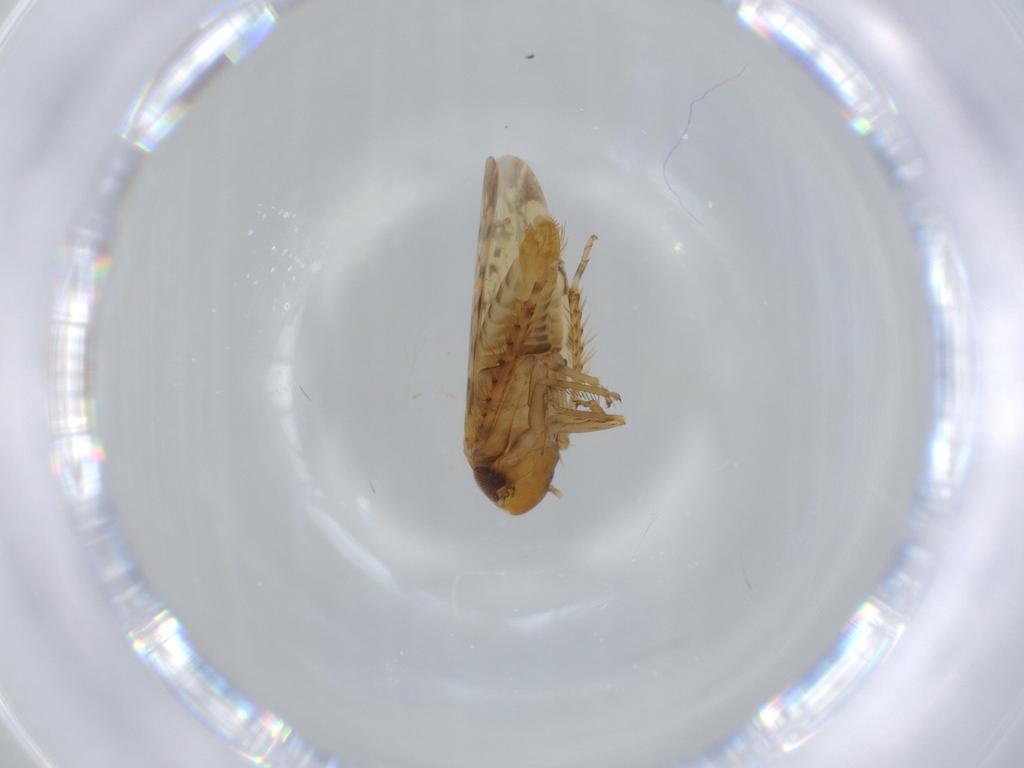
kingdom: Animalia
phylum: Arthropoda
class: Insecta
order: Hemiptera
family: Cicadellidae
